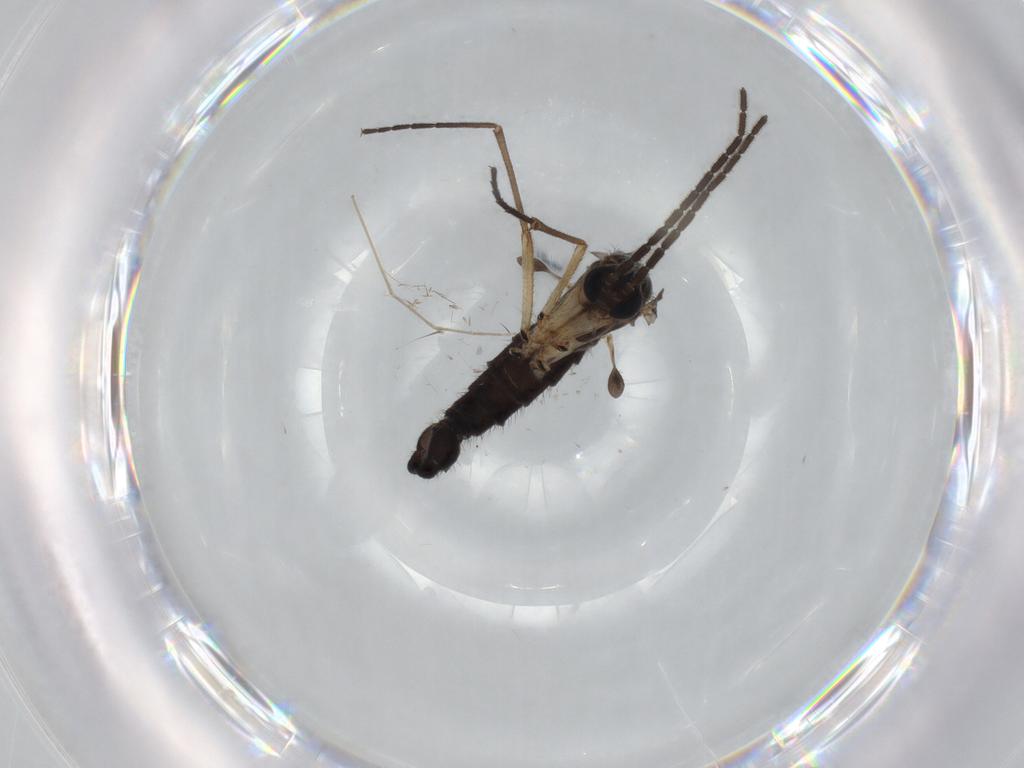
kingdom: Animalia
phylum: Arthropoda
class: Insecta
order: Diptera
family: Sciaridae
